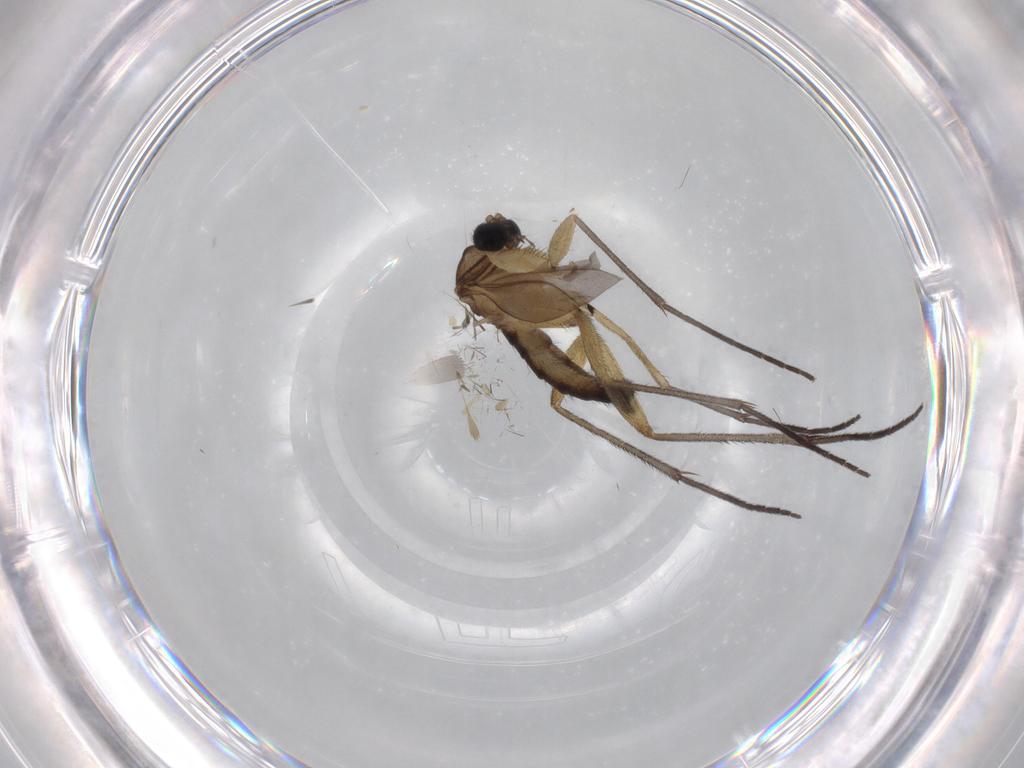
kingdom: Animalia
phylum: Arthropoda
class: Insecta
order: Diptera
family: Sciaridae
